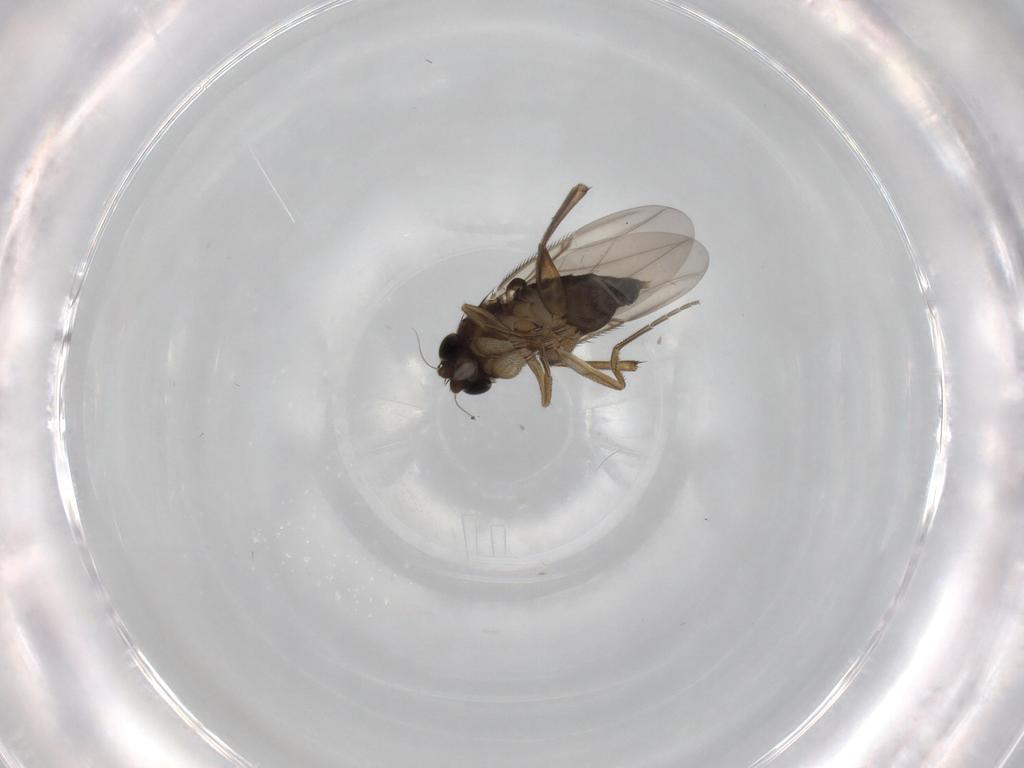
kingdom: Animalia
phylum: Arthropoda
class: Insecta
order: Diptera
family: Phoridae
